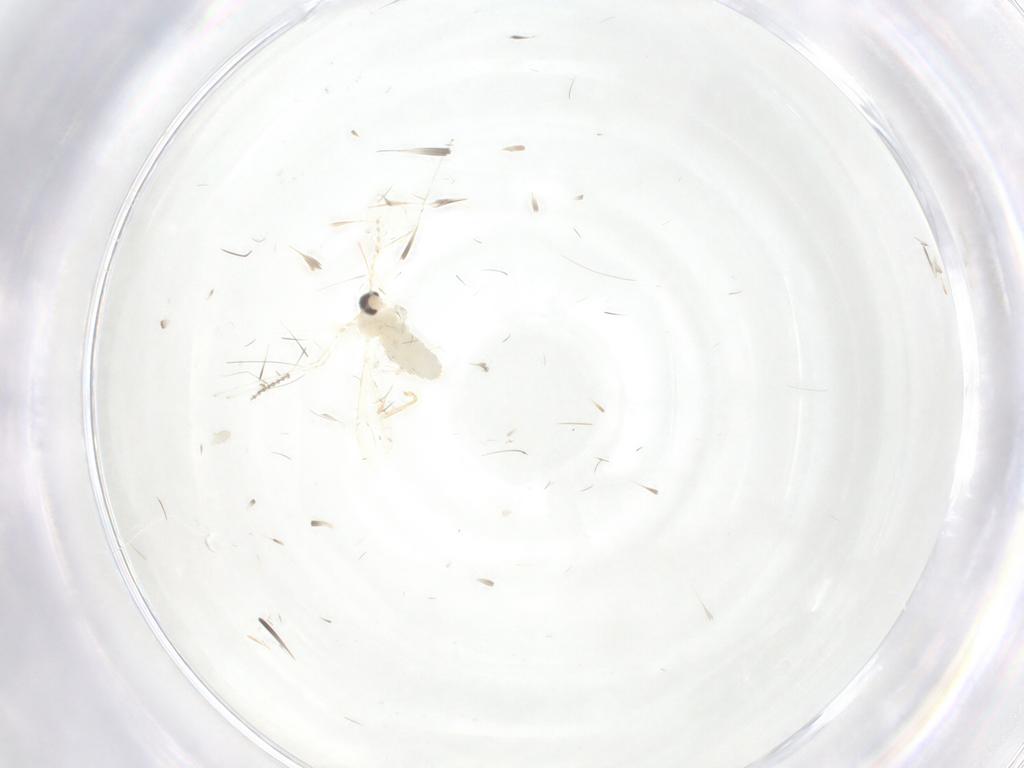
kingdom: Animalia
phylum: Arthropoda
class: Insecta
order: Diptera
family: Cecidomyiidae
